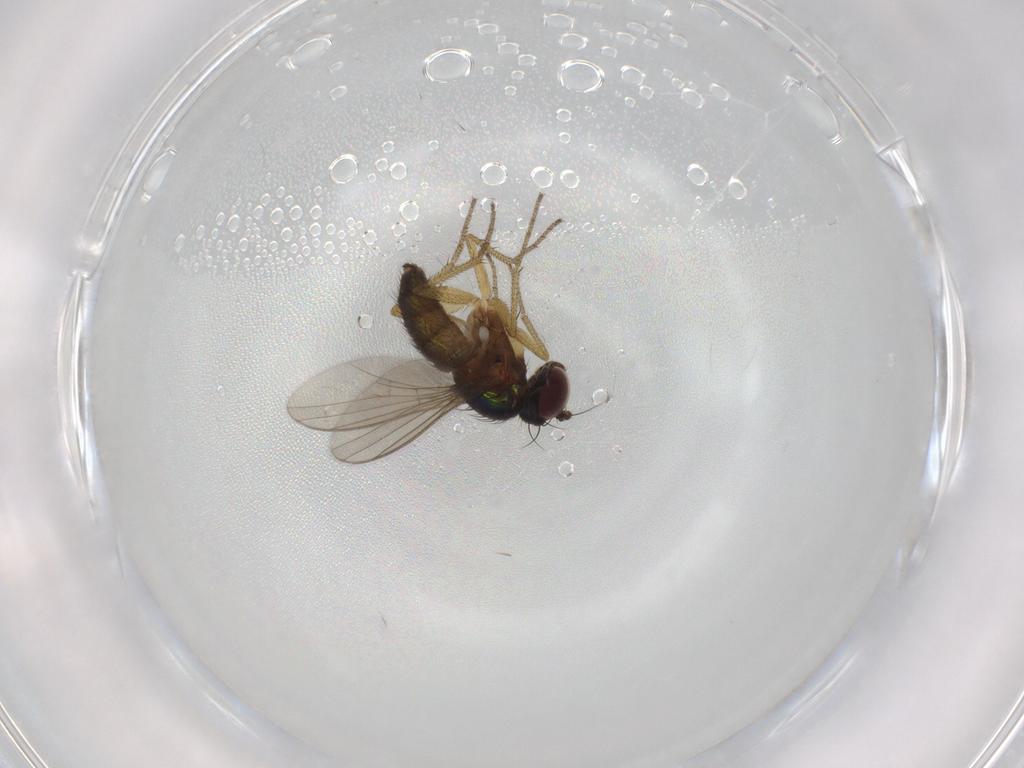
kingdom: Animalia
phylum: Arthropoda
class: Insecta
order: Diptera
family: Chironomidae
